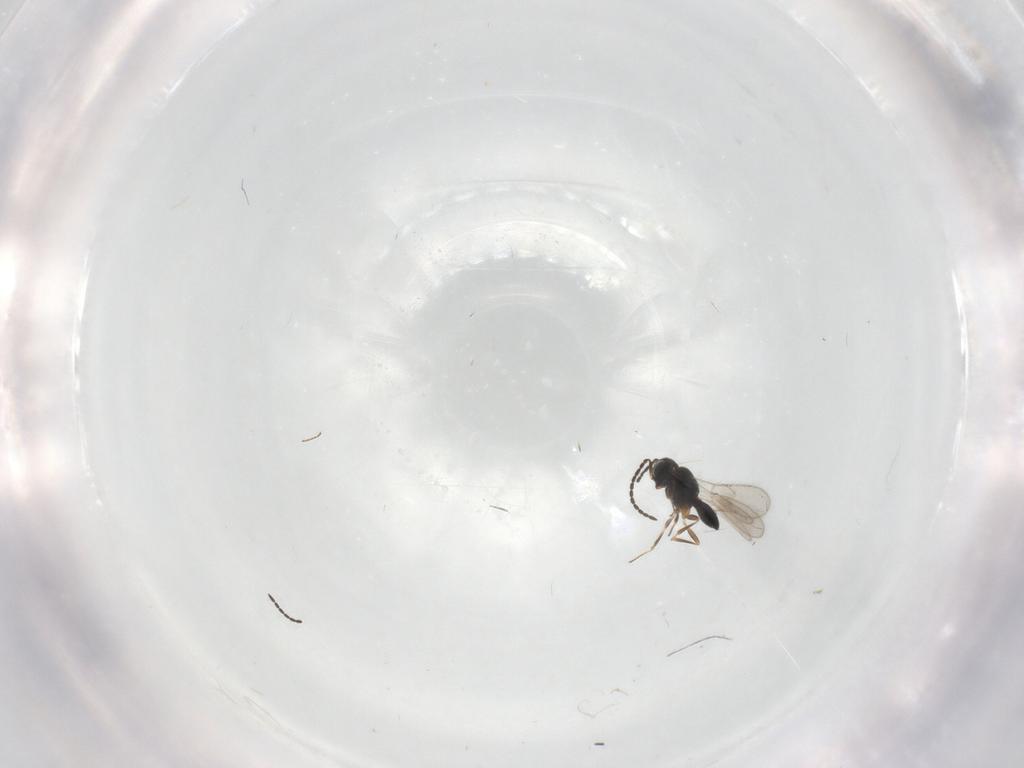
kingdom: Animalia
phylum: Arthropoda
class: Insecta
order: Hymenoptera
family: Scelionidae
